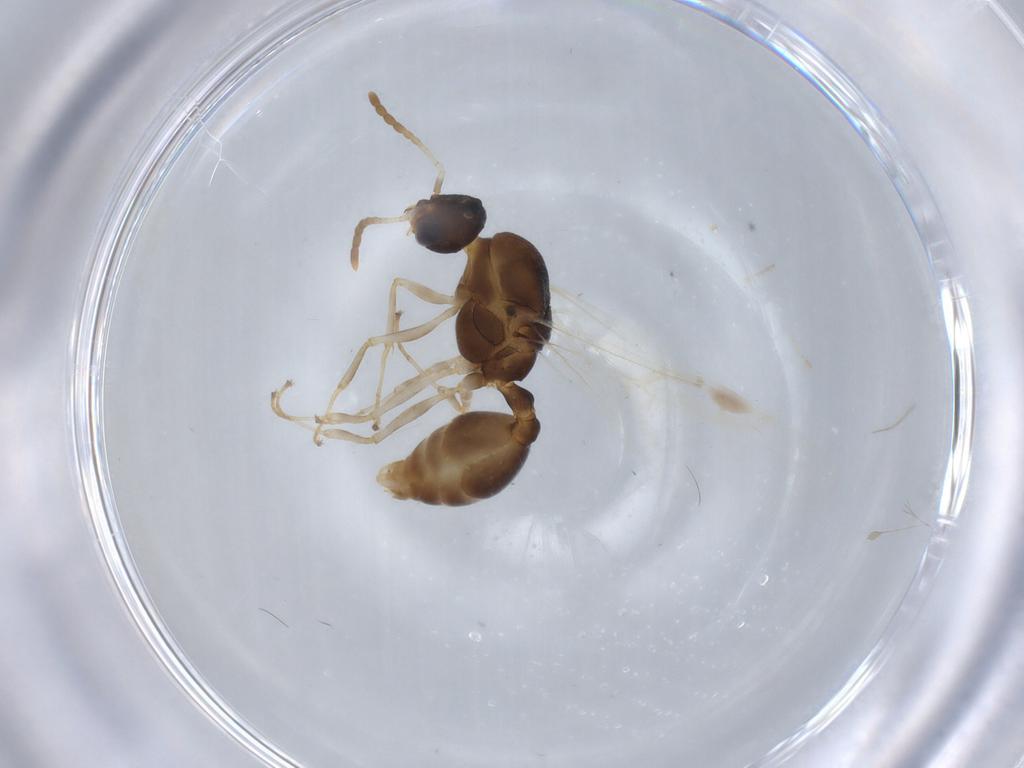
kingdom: Animalia
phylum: Arthropoda
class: Insecta
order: Hymenoptera
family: Formicidae
